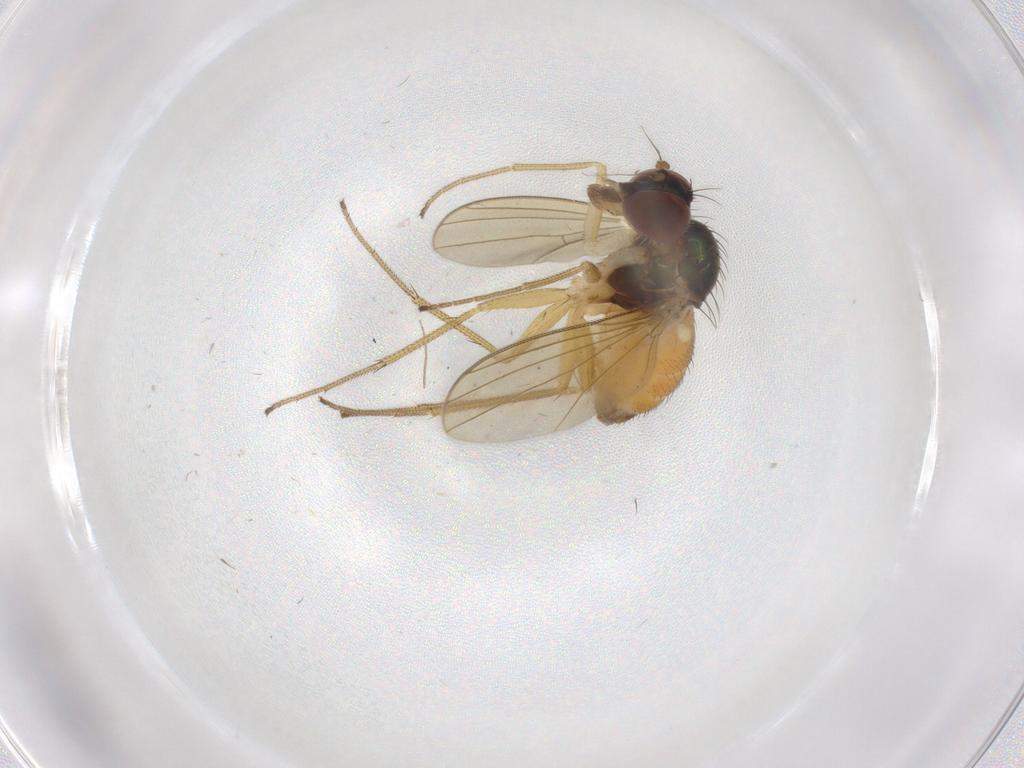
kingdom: Animalia
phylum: Arthropoda
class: Insecta
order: Diptera
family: Dolichopodidae
